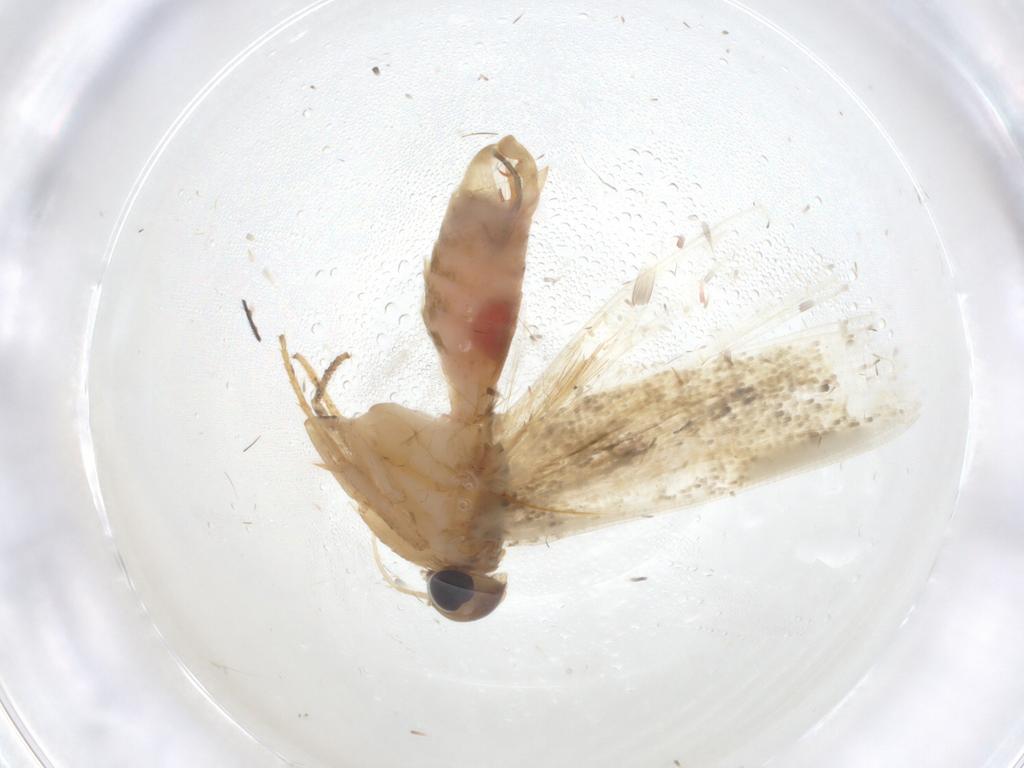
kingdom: Animalia
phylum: Arthropoda
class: Insecta
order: Lepidoptera
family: Gelechiidae
